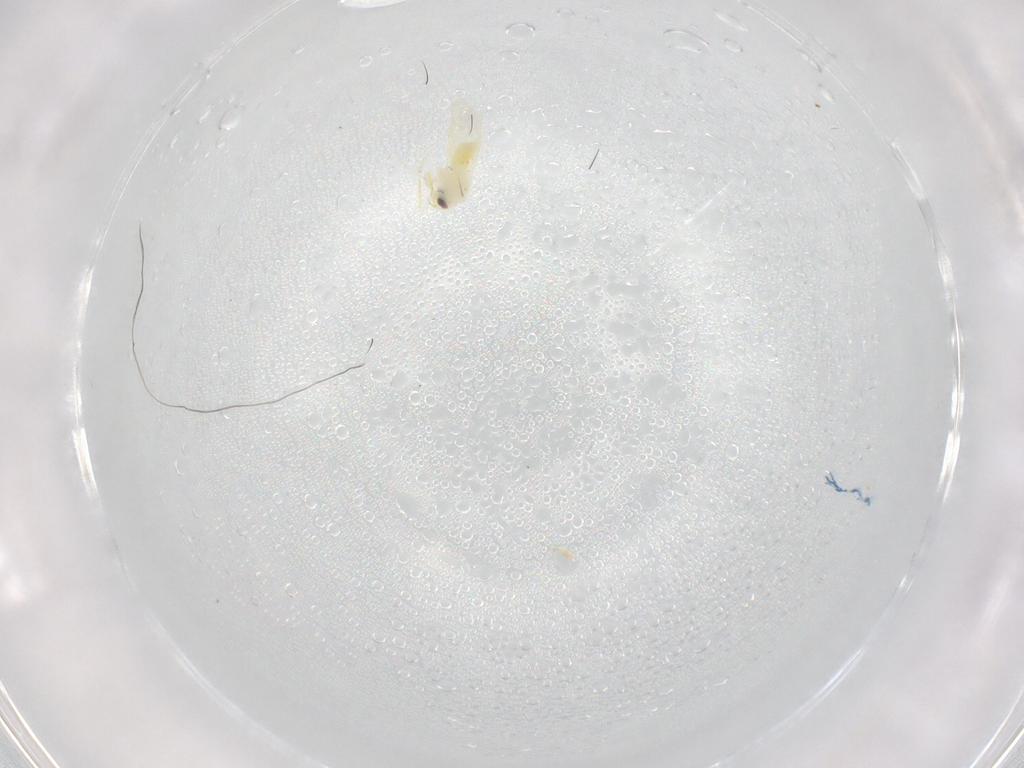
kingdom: Animalia
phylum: Arthropoda
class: Insecta
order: Hemiptera
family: Aleyrodidae
